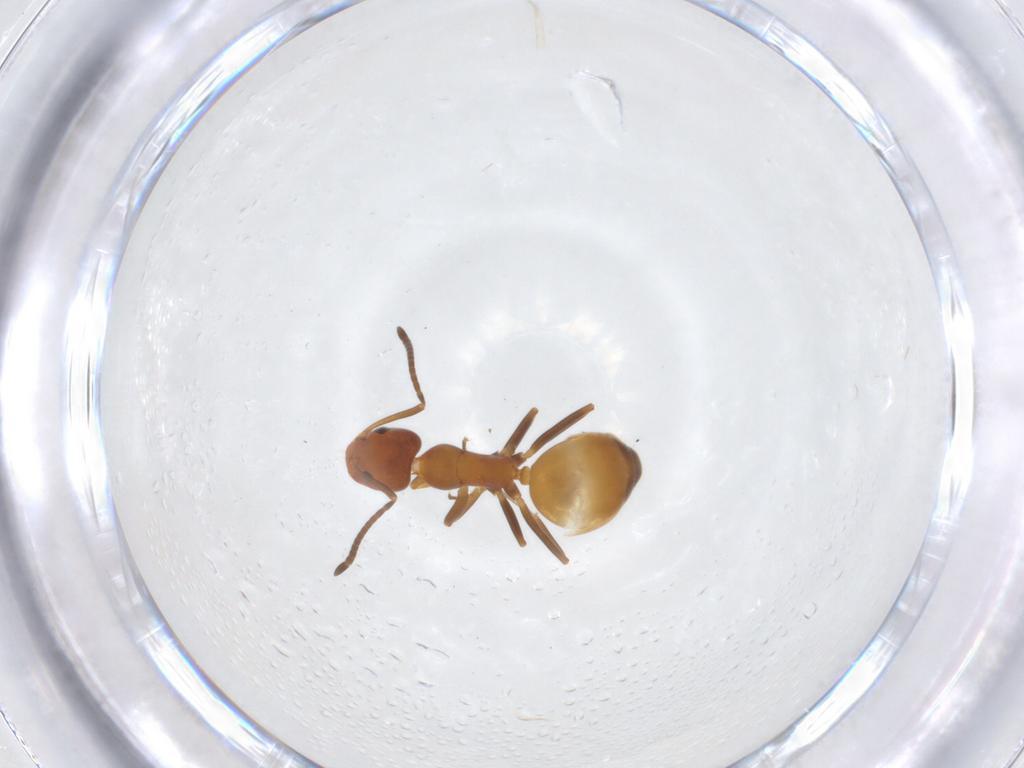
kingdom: Animalia
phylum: Arthropoda
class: Insecta
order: Hymenoptera
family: Formicidae
